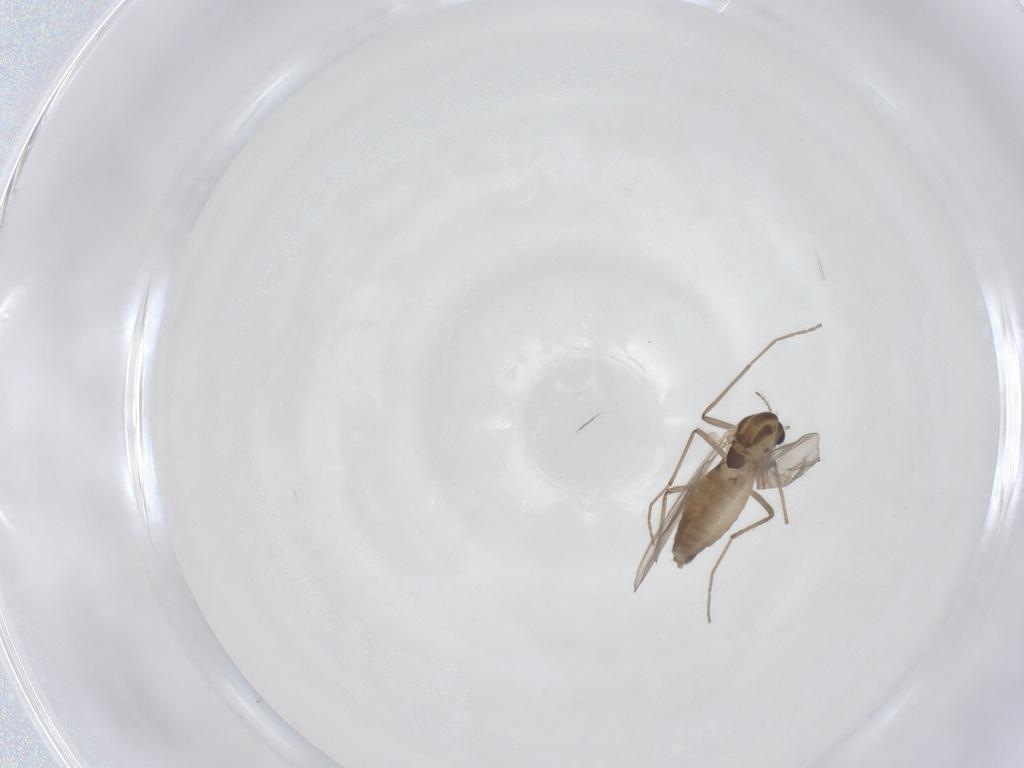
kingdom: Animalia
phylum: Arthropoda
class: Insecta
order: Diptera
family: Chironomidae
